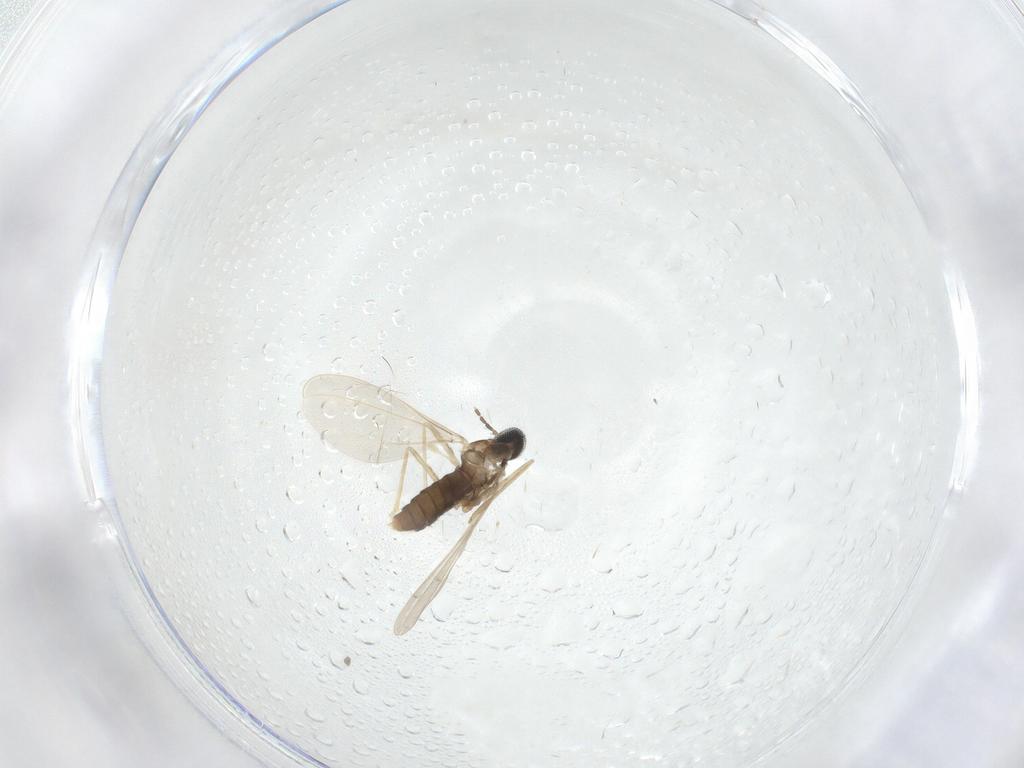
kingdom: Animalia
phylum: Arthropoda
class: Insecta
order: Diptera
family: Cecidomyiidae
